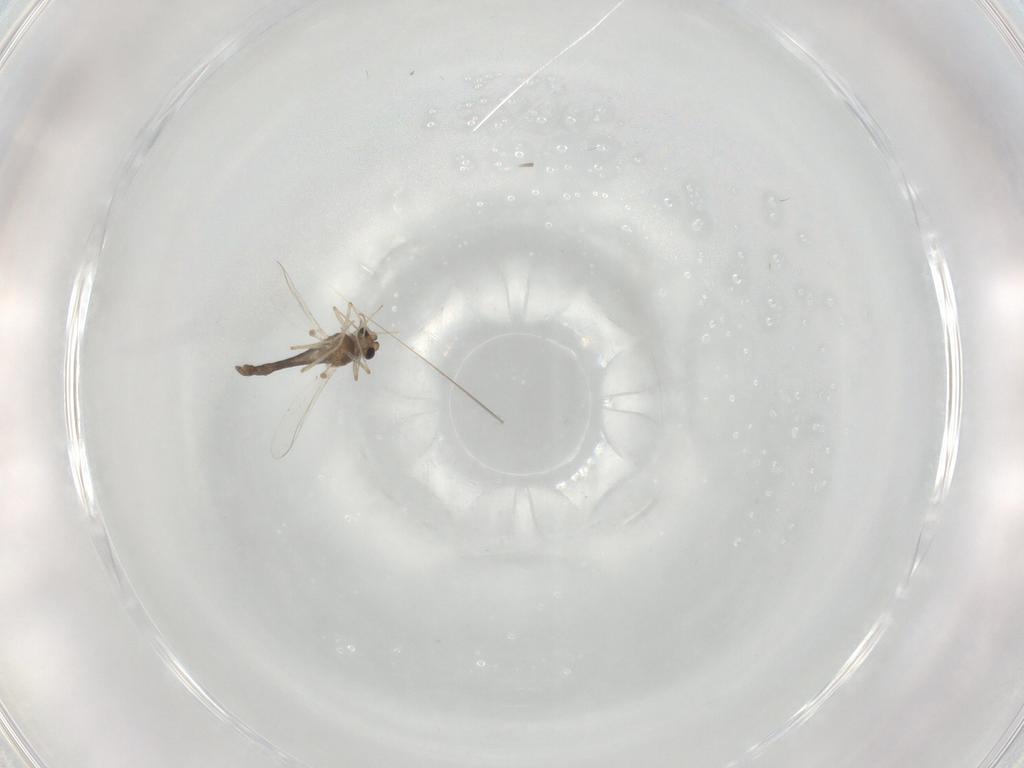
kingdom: Animalia
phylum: Arthropoda
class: Insecta
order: Diptera
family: Chironomidae
